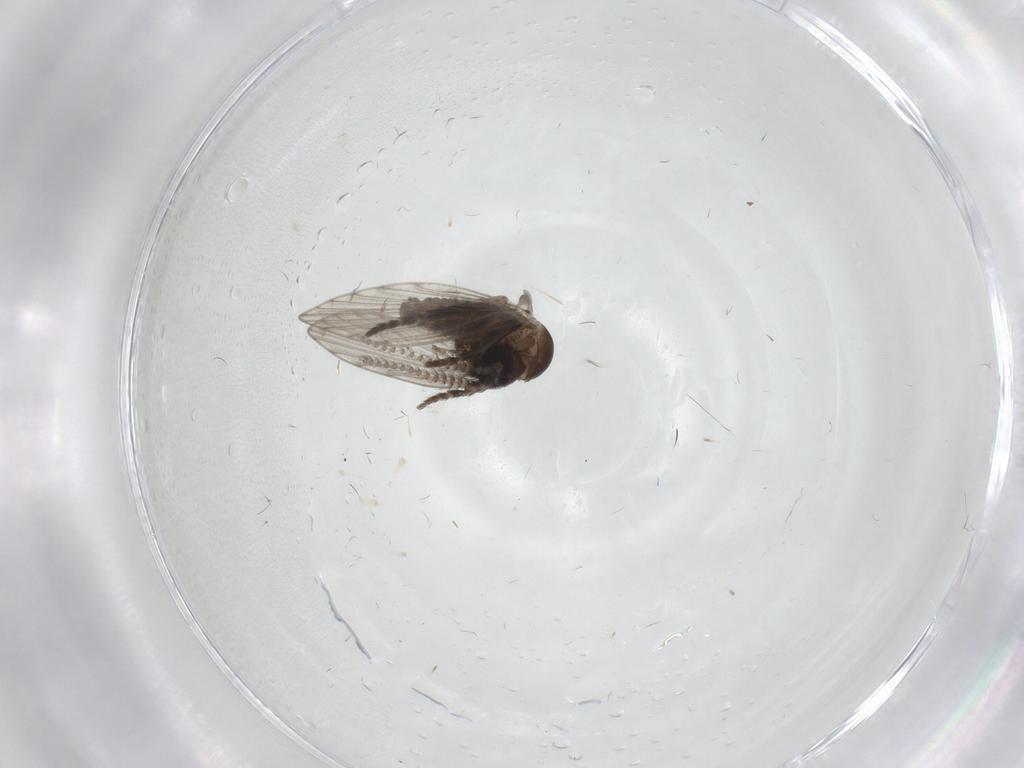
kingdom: Animalia
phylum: Arthropoda
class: Insecta
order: Diptera
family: Psychodidae
